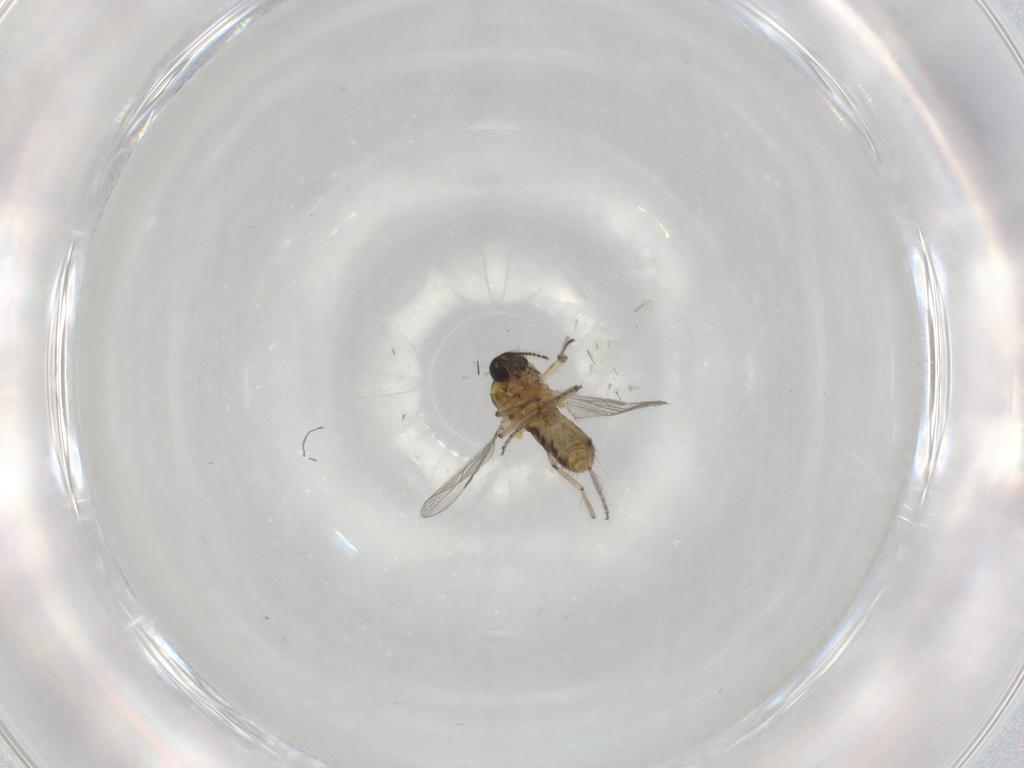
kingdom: Animalia
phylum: Arthropoda
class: Insecta
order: Diptera
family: Ceratopogonidae
